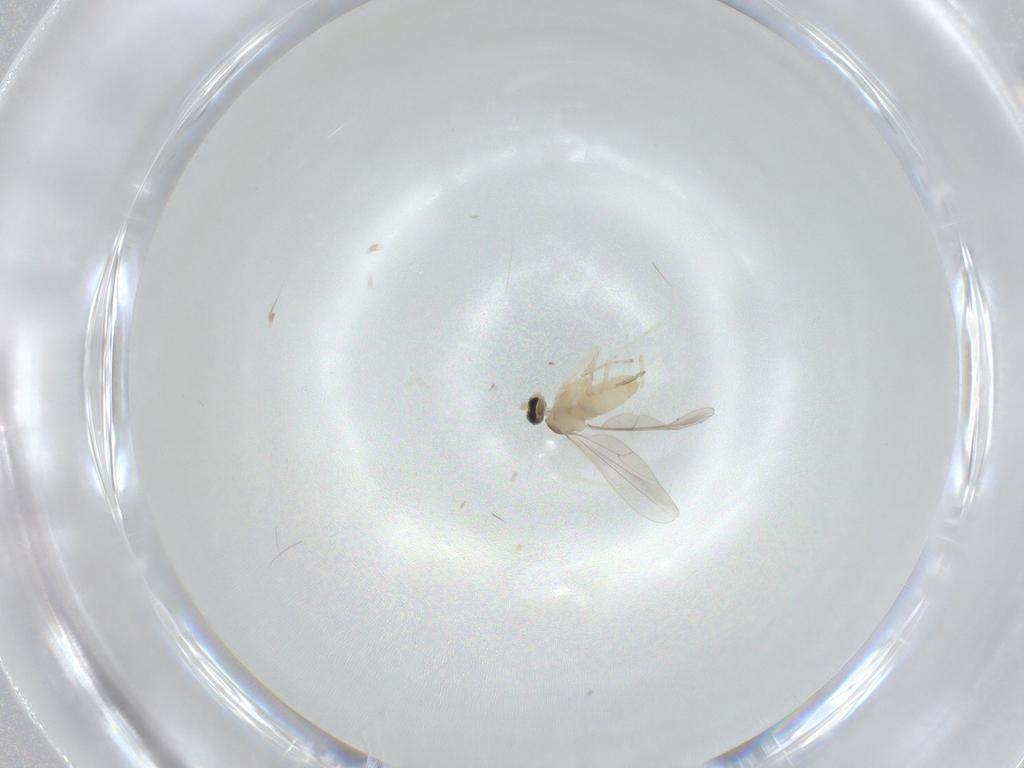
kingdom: Animalia
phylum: Arthropoda
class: Insecta
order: Diptera
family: Cecidomyiidae
